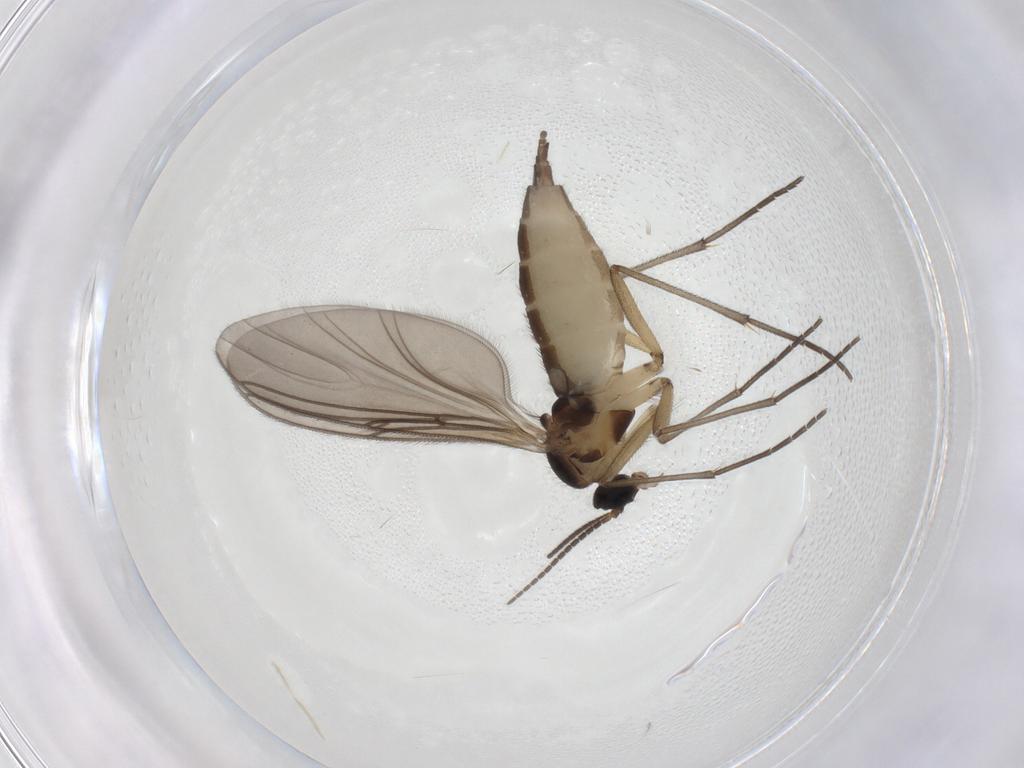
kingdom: Animalia
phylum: Arthropoda
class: Insecta
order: Diptera
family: Sciaridae
